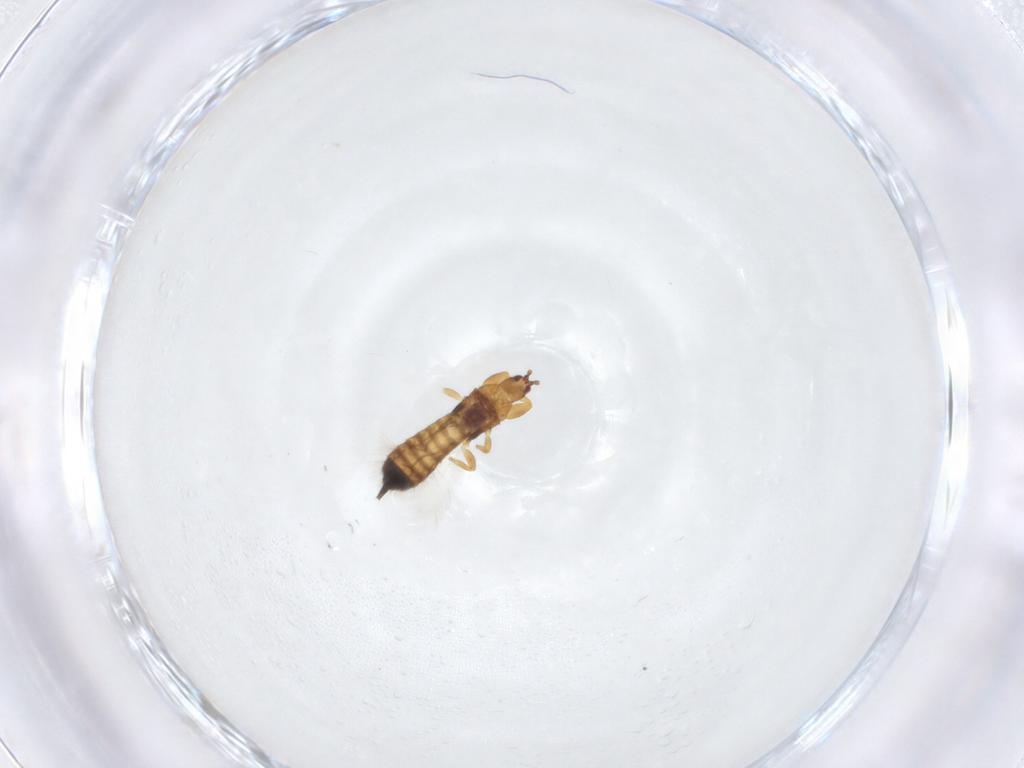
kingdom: Animalia
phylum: Arthropoda
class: Insecta
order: Thysanoptera
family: Phlaeothripidae
